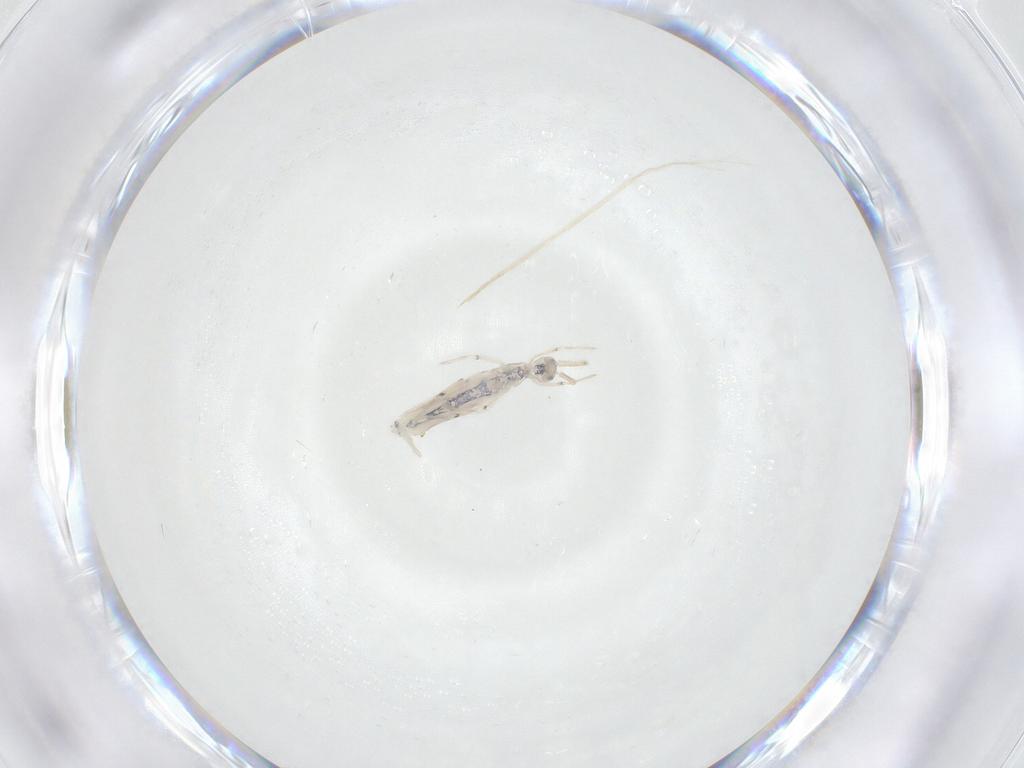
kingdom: Animalia
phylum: Arthropoda
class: Collembola
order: Entomobryomorpha
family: Entomobryidae
